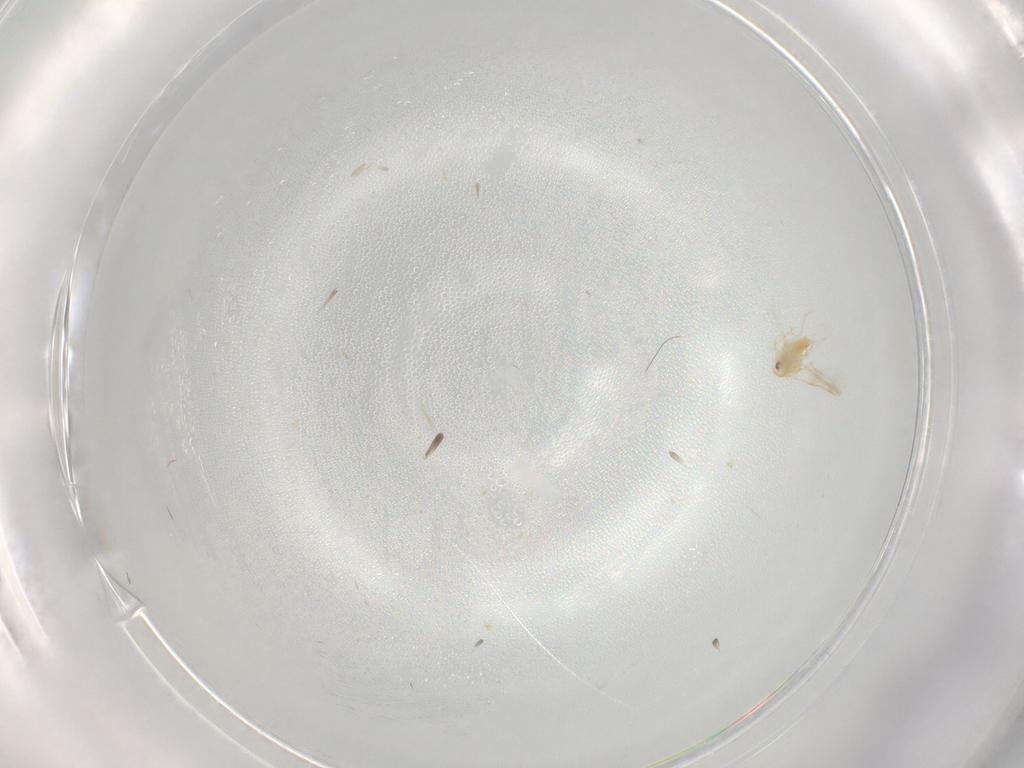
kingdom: Animalia
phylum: Arthropoda
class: Insecta
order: Hemiptera
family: Aleyrodidae
